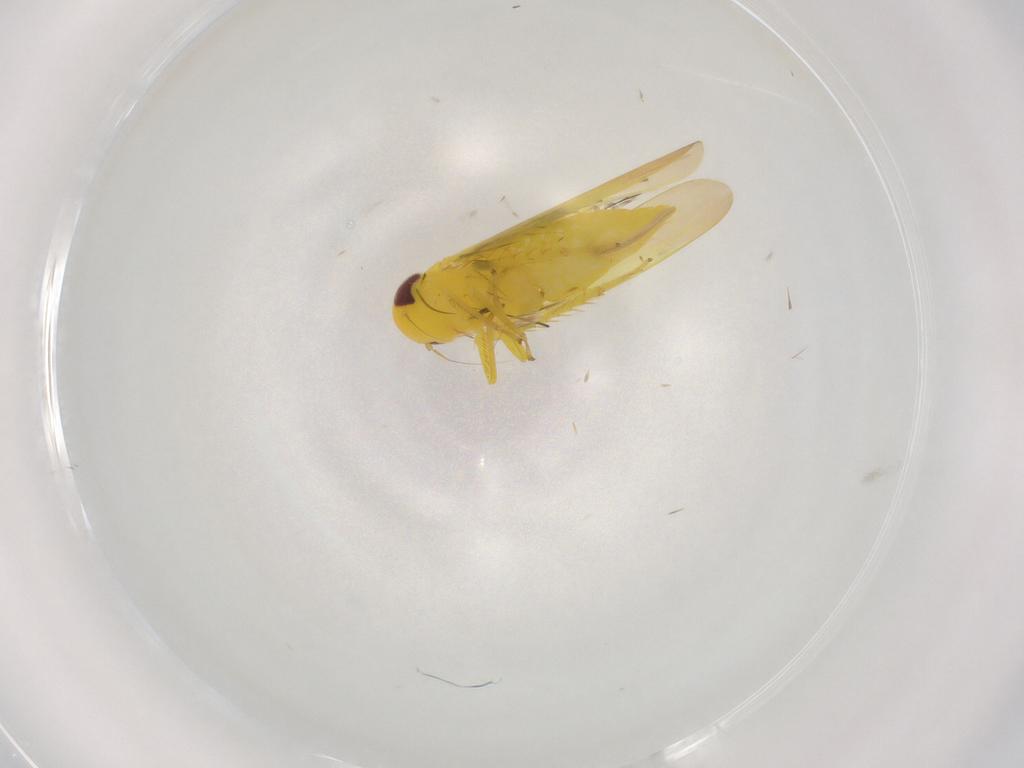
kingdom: Animalia
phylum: Arthropoda
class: Insecta
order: Hemiptera
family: Cicadellidae
